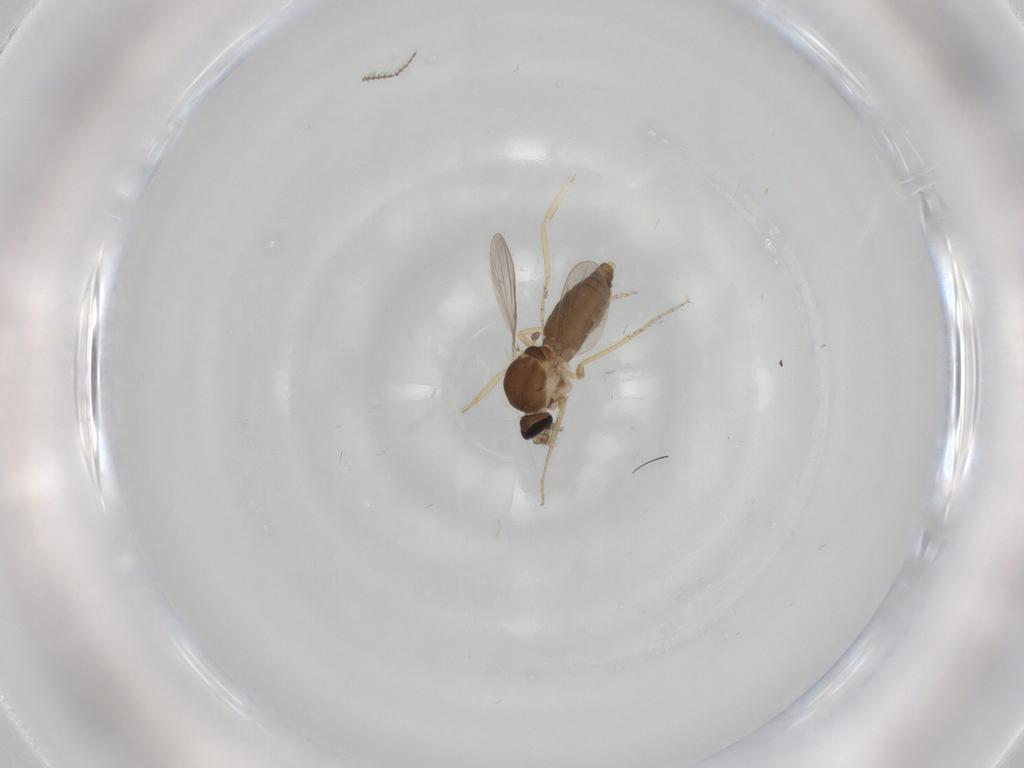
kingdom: Animalia
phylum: Arthropoda
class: Insecta
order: Diptera
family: Ceratopogonidae
